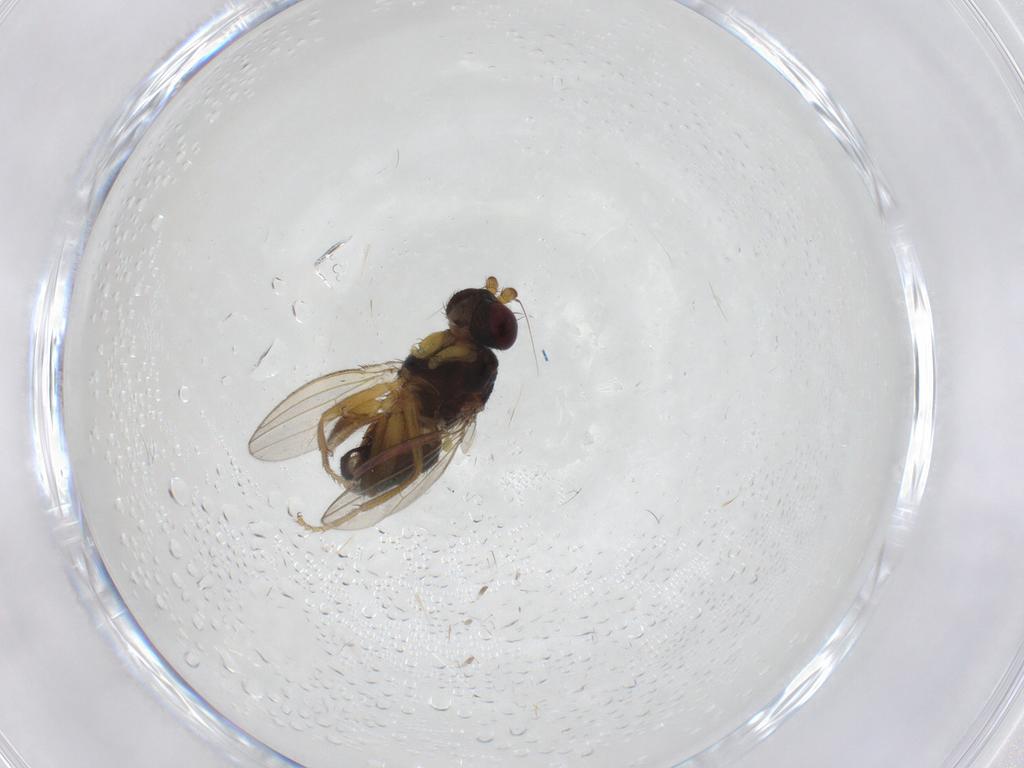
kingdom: Animalia
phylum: Arthropoda
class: Insecta
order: Diptera
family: Pseudopomyzidae
